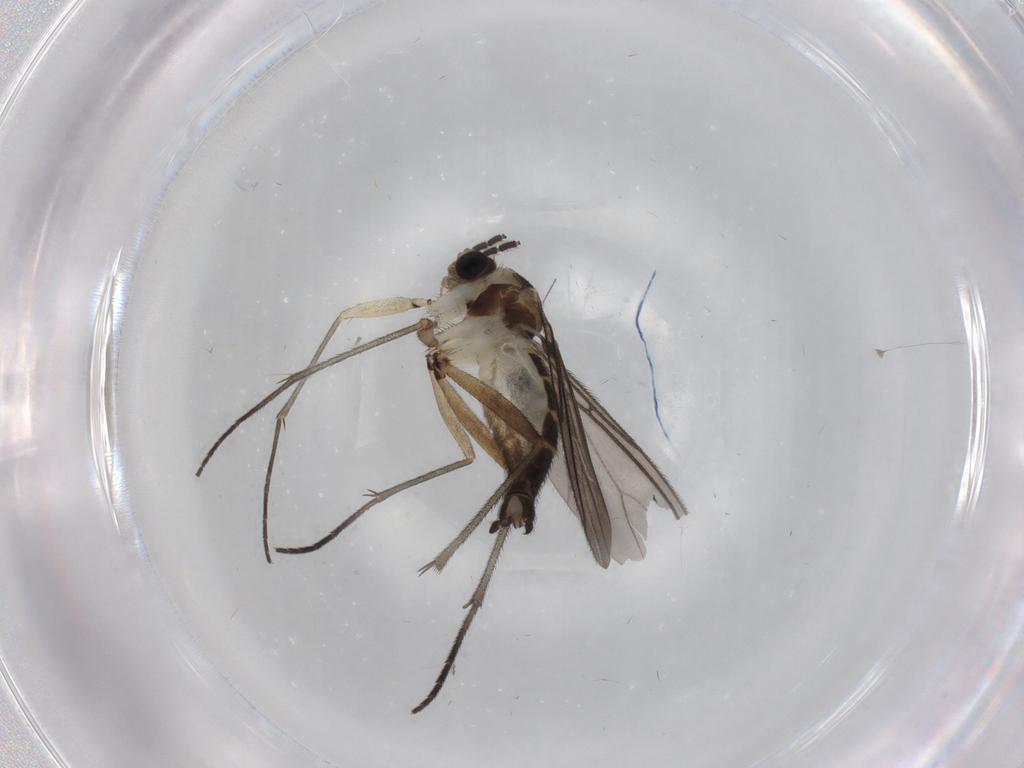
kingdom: Animalia
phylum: Arthropoda
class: Insecta
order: Diptera
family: Sciaridae
